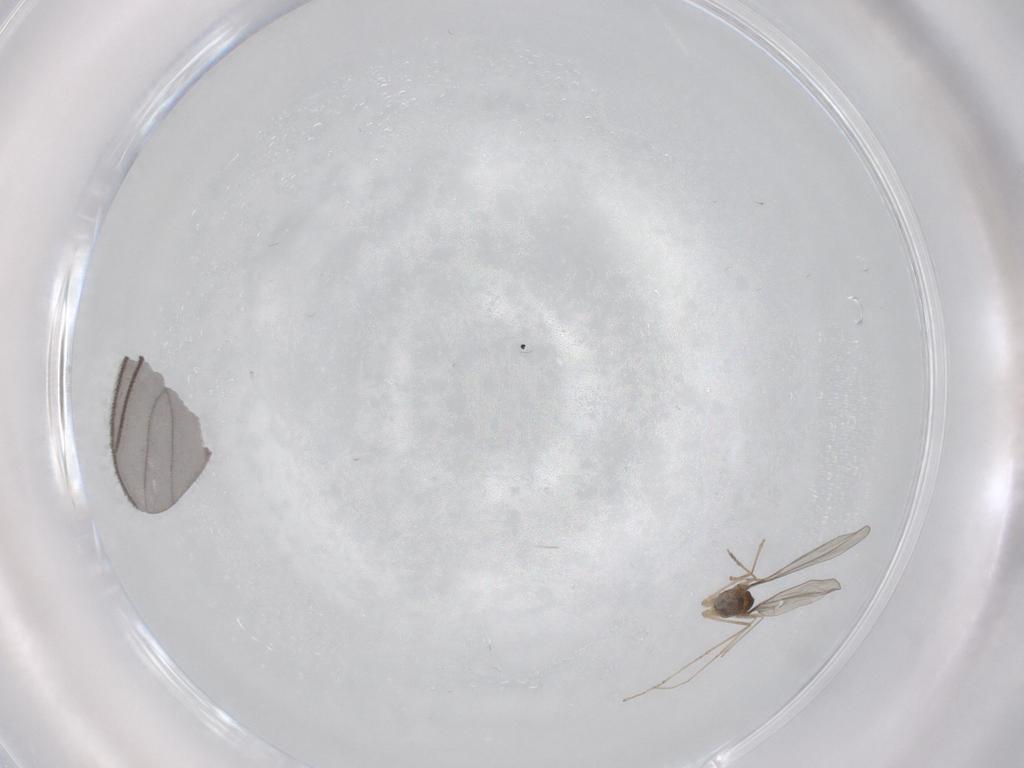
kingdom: Animalia
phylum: Arthropoda
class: Insecta
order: Diptera
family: Cecidomyiidae
